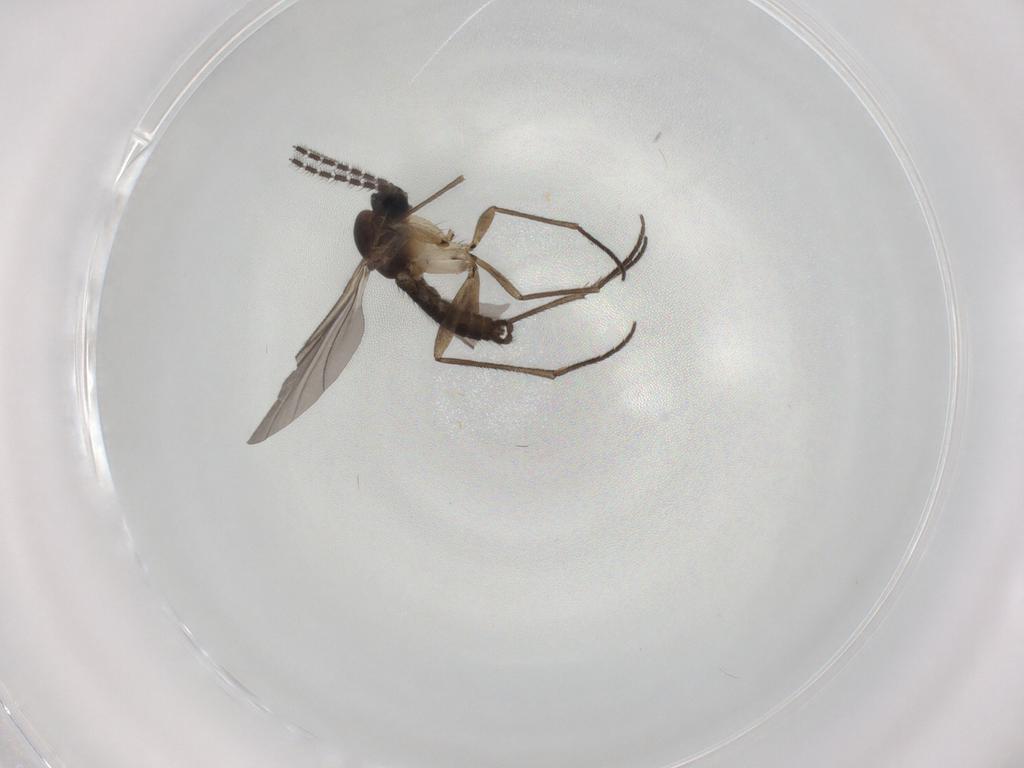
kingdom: Animalia
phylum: Arthropoda
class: Insecta
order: Diptera
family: Sciaridae
